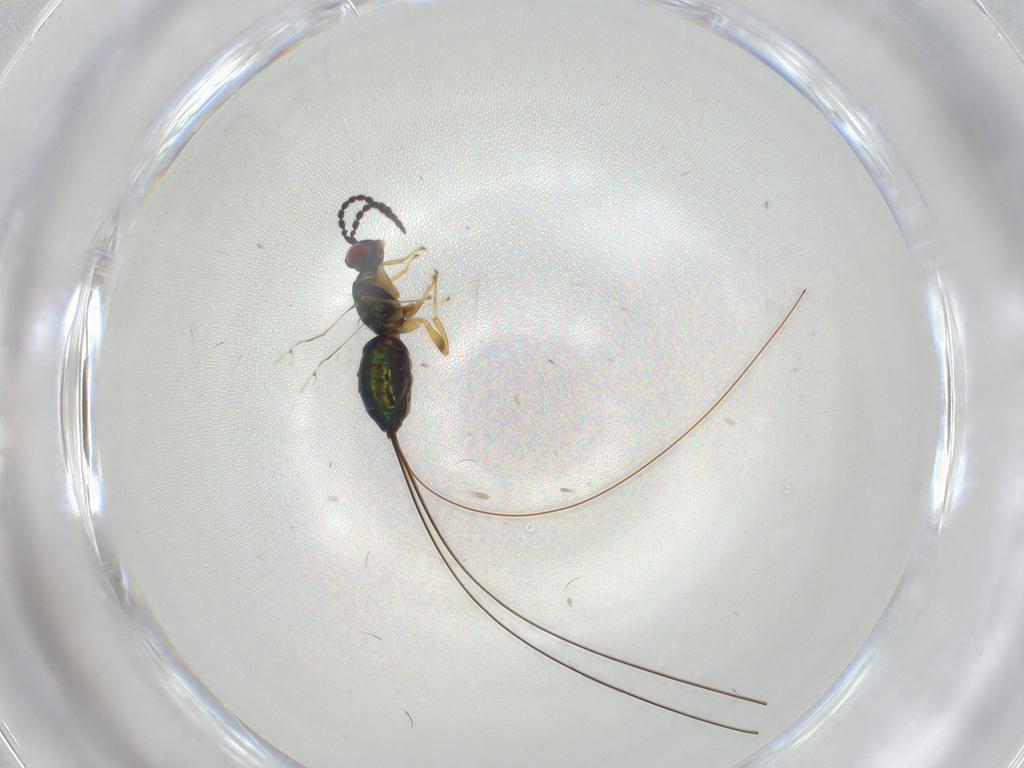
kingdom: Animalia
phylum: Arthropoda
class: Insecta
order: Hymenoptera
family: Pteromalidae
